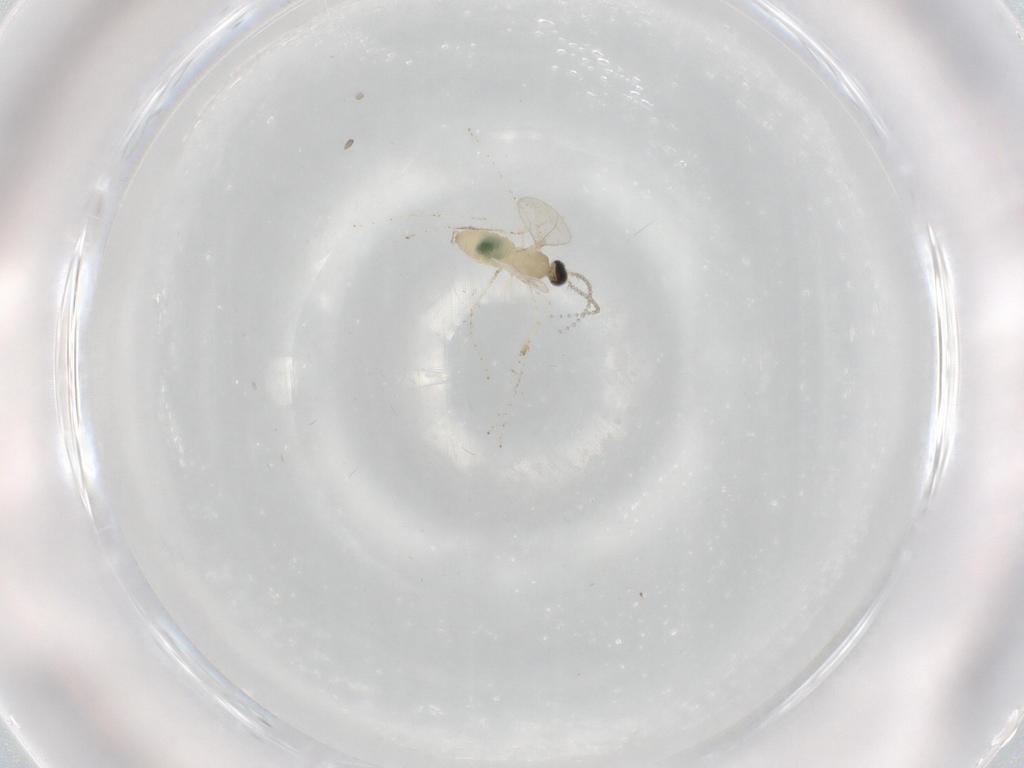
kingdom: Animalia
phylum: Arthropoda
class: Insecta
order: Diptera
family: Cecidomyiidae
